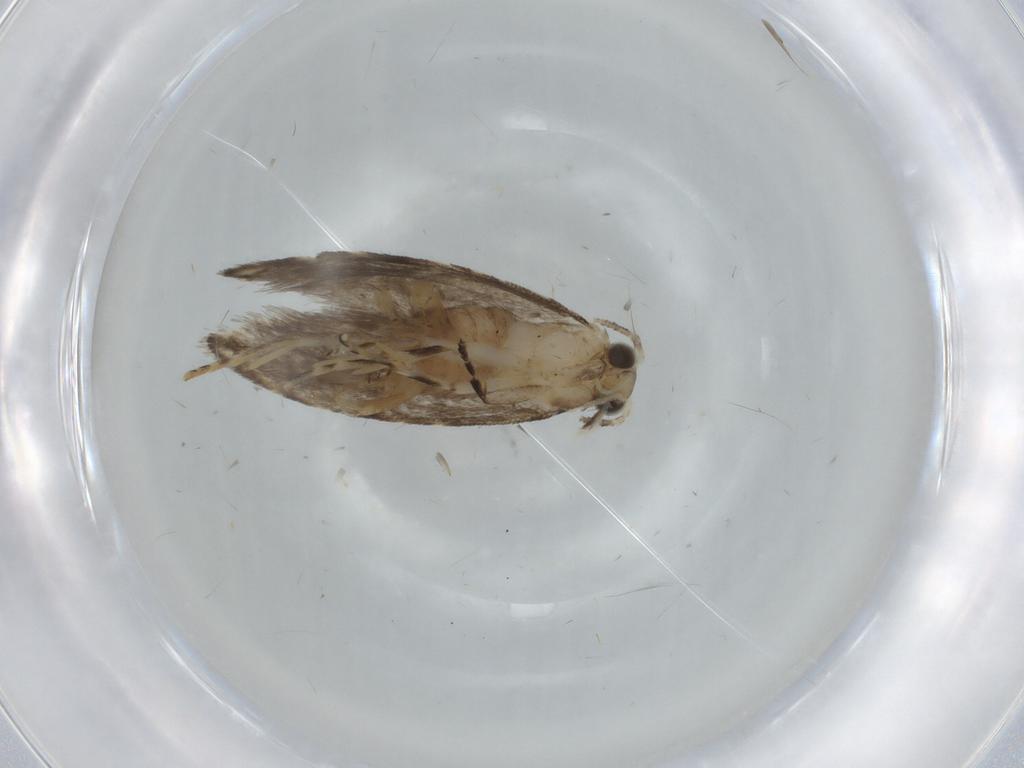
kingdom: Animalia
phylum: Arthropoda
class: Insecta
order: Lepidoptera
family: Tineidae
